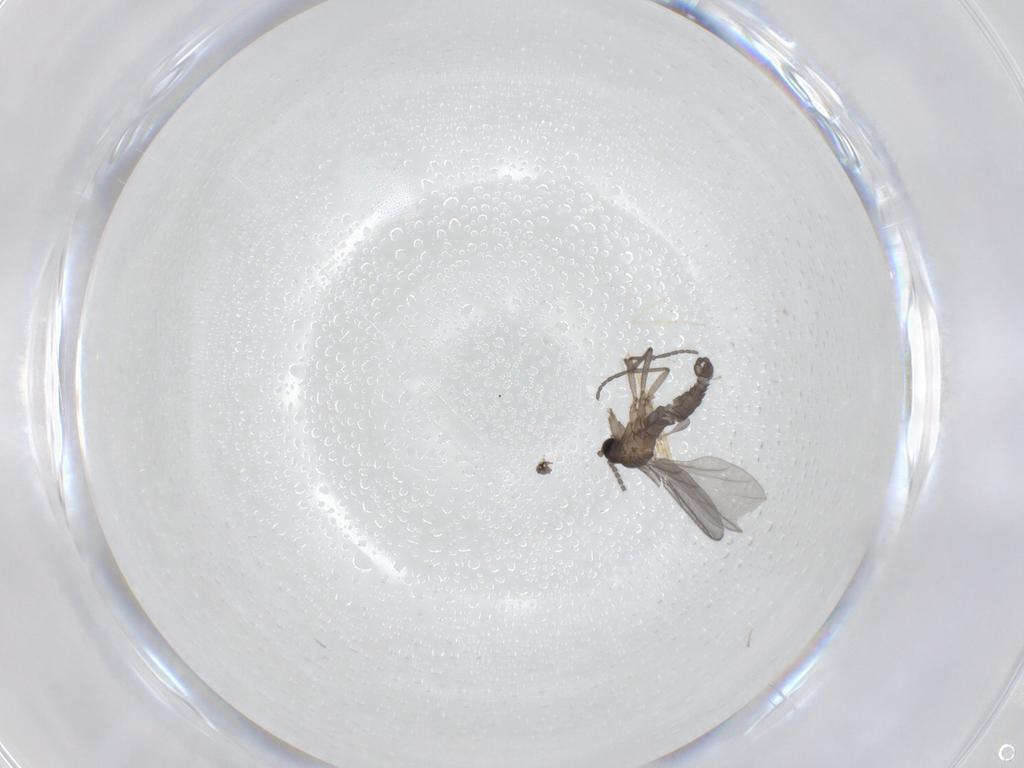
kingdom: Animalia
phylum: Arthropoda
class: Insecta
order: Diptera
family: Sciaridae
